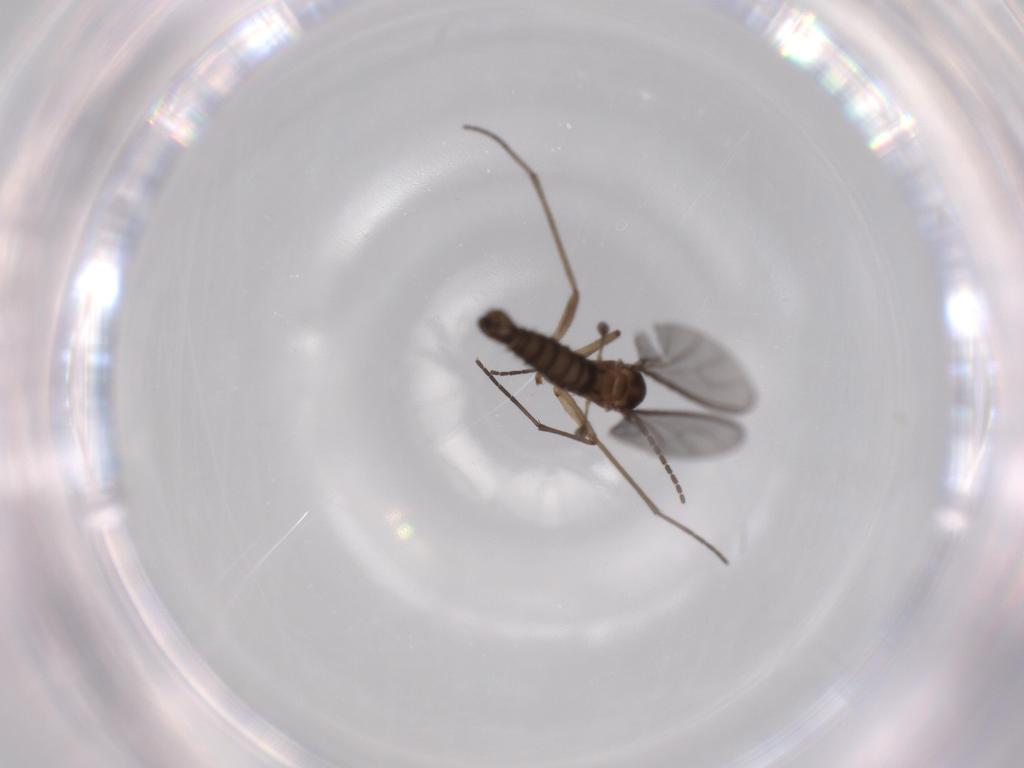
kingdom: Animalia
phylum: Arthropoda
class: Insecta
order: Diptera
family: Sciaridae
